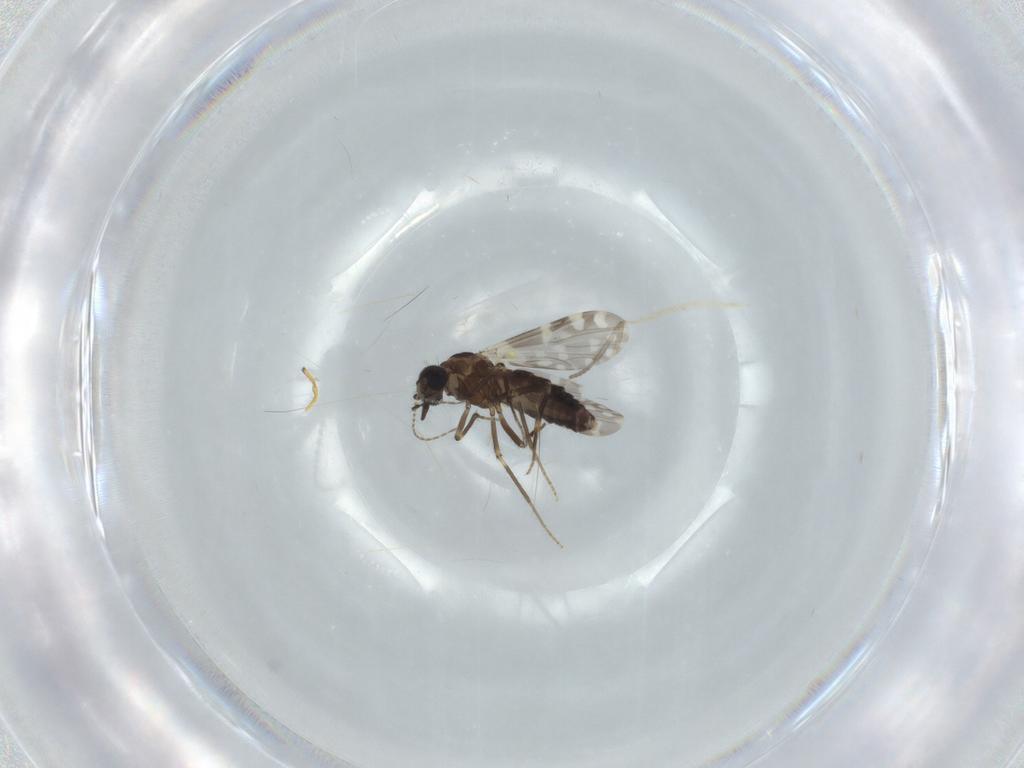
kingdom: Animalia
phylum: Arthropoda
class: Insecta
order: Diptera
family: Ceratopogonidae
